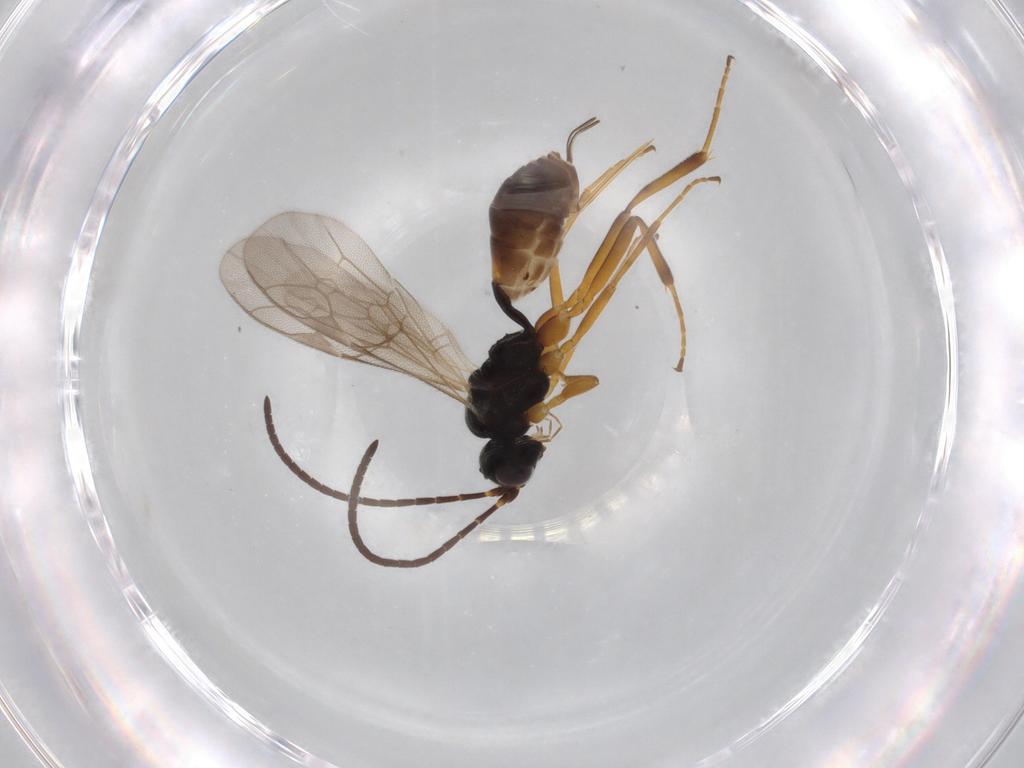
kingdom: Animalia
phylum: Arthropoda
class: Insecta
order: Hymenoptera
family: Ichneumonidae
